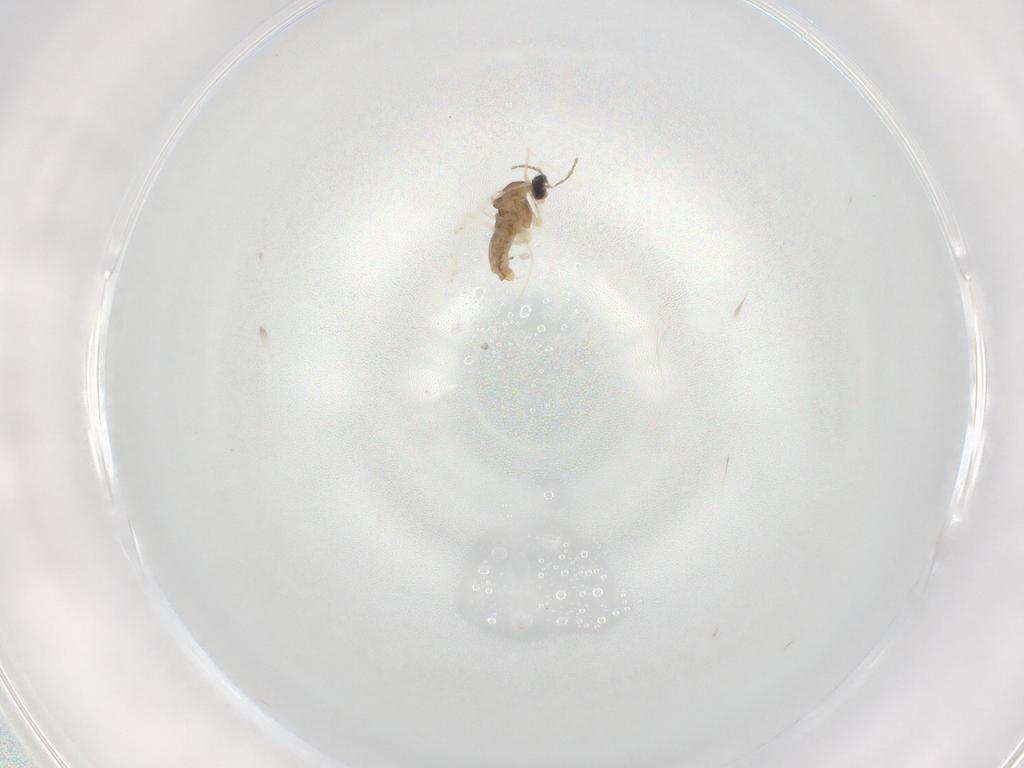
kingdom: Animalia
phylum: Arthropoda
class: Insecta
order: Diptera
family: Cecidomyiidae
